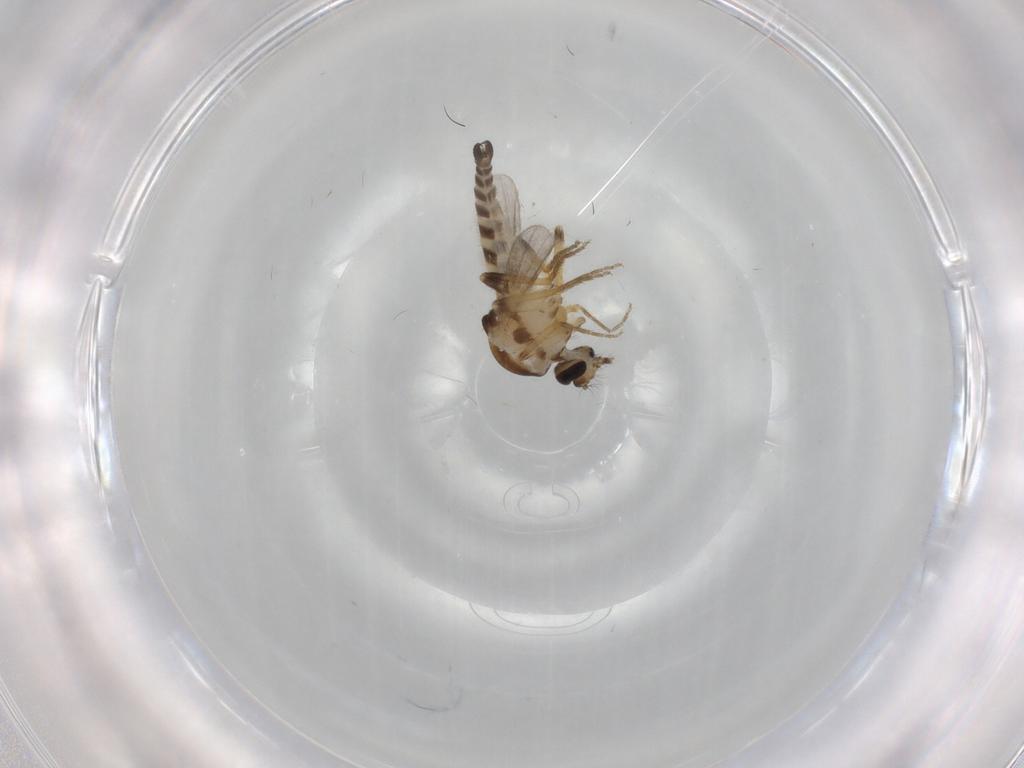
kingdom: Animalia
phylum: Arthropoda
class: Insecta
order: Diptera
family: Ceratopogonidae
